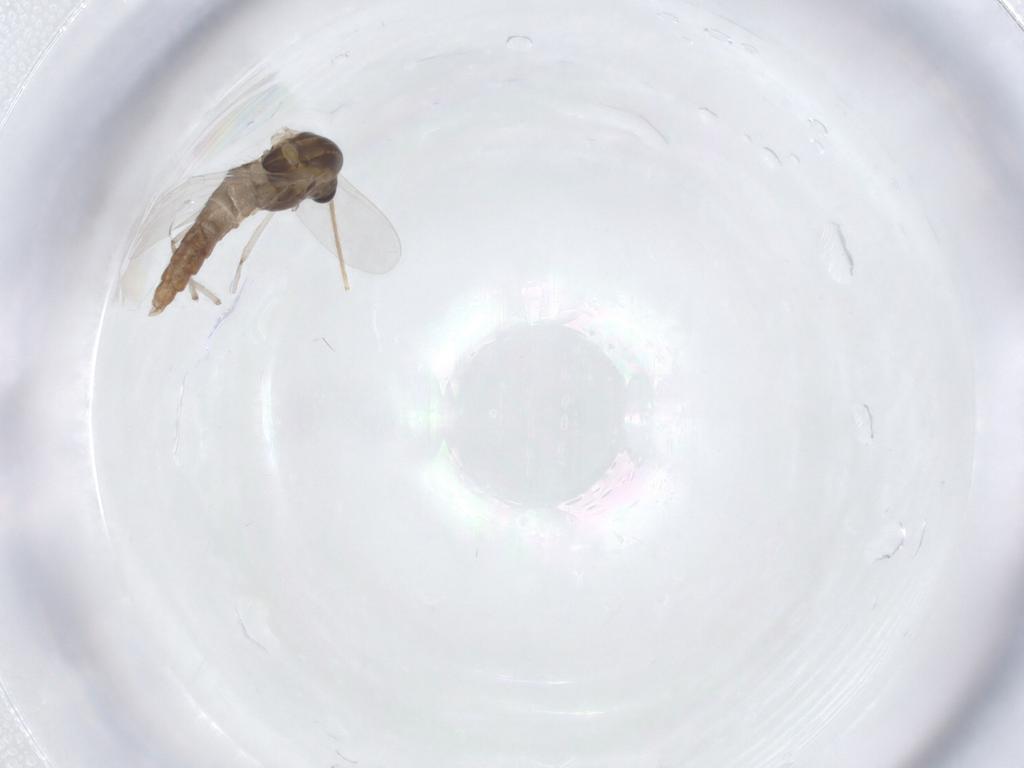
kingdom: Animalia
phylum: Arthropoda
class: Insecta
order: Diptera
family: Chironomidae
